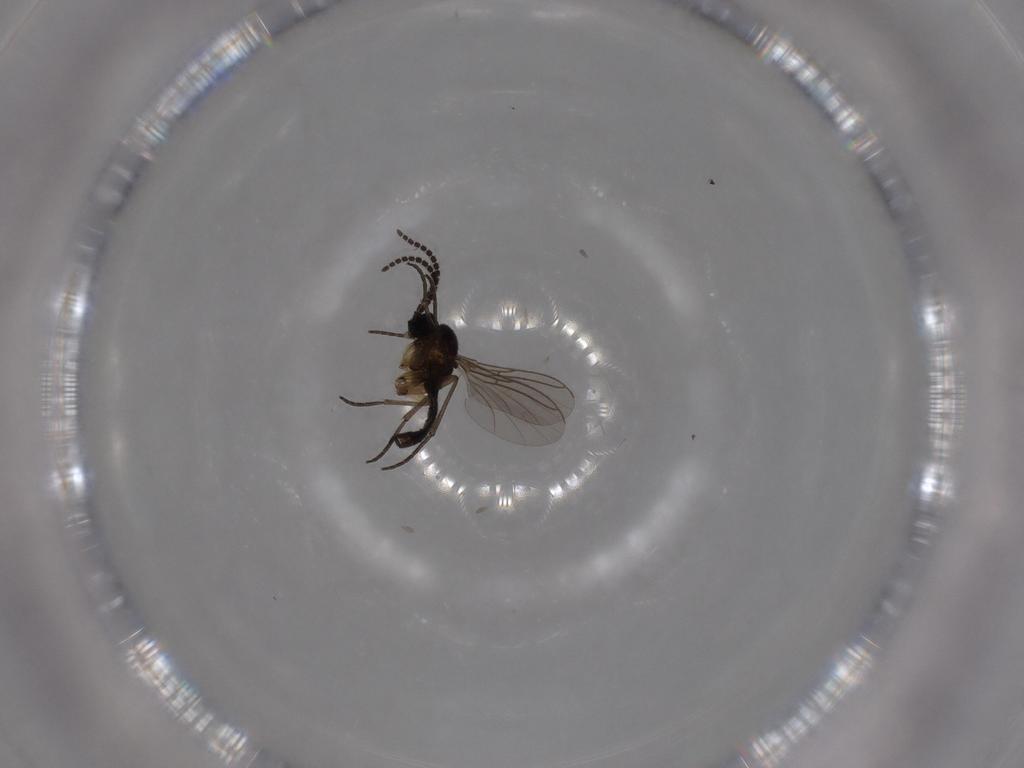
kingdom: Animalia
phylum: Arthropoda
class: Insecta
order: Diptera
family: Sciaridae
